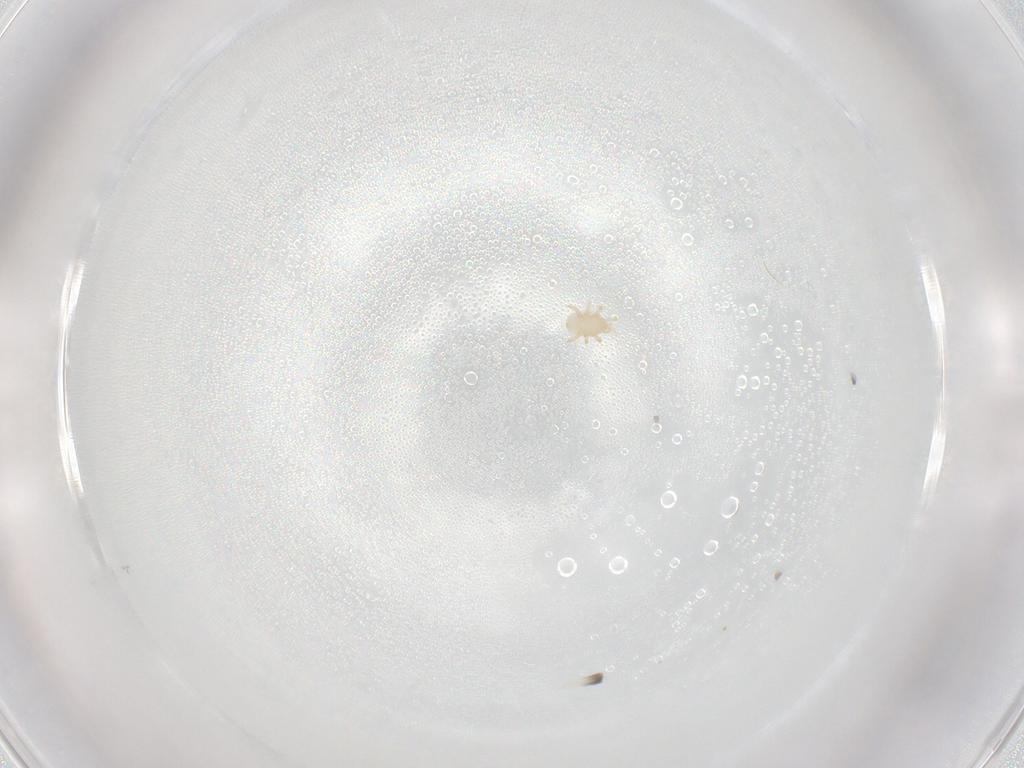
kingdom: Animalia
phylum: Arthropoda
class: Arachnida
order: Mesostigmata
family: Halolaelapidae
